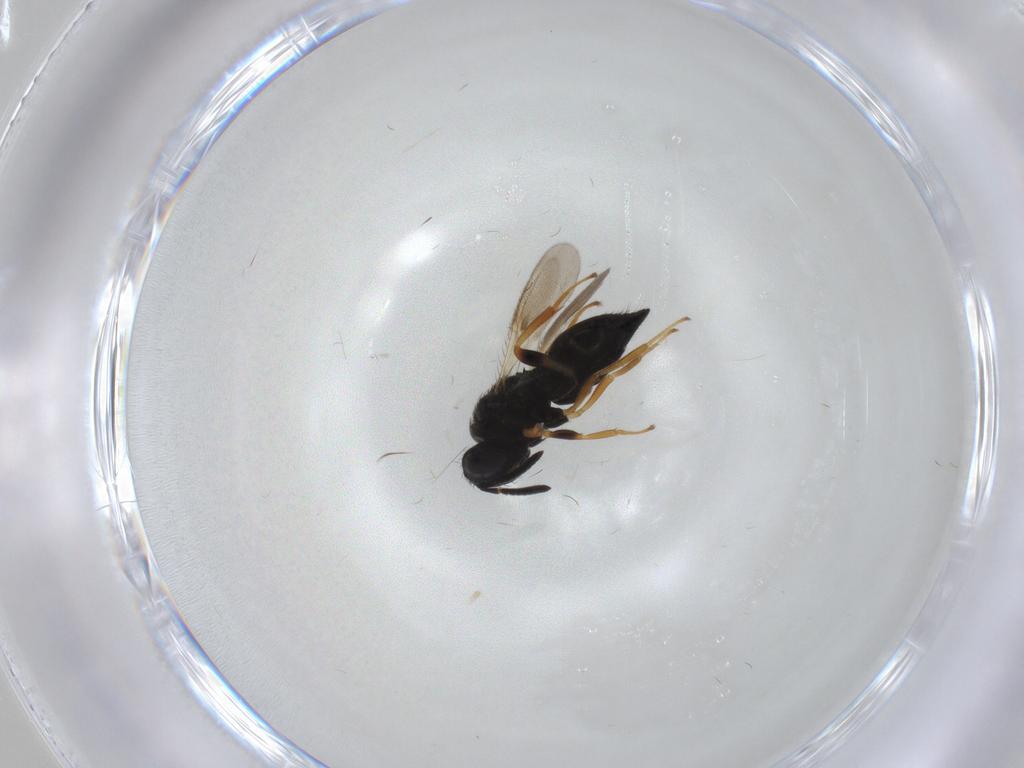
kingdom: Animalia
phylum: Arthropoda
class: Insecta
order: Hymenoptera
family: Pteromalidae
